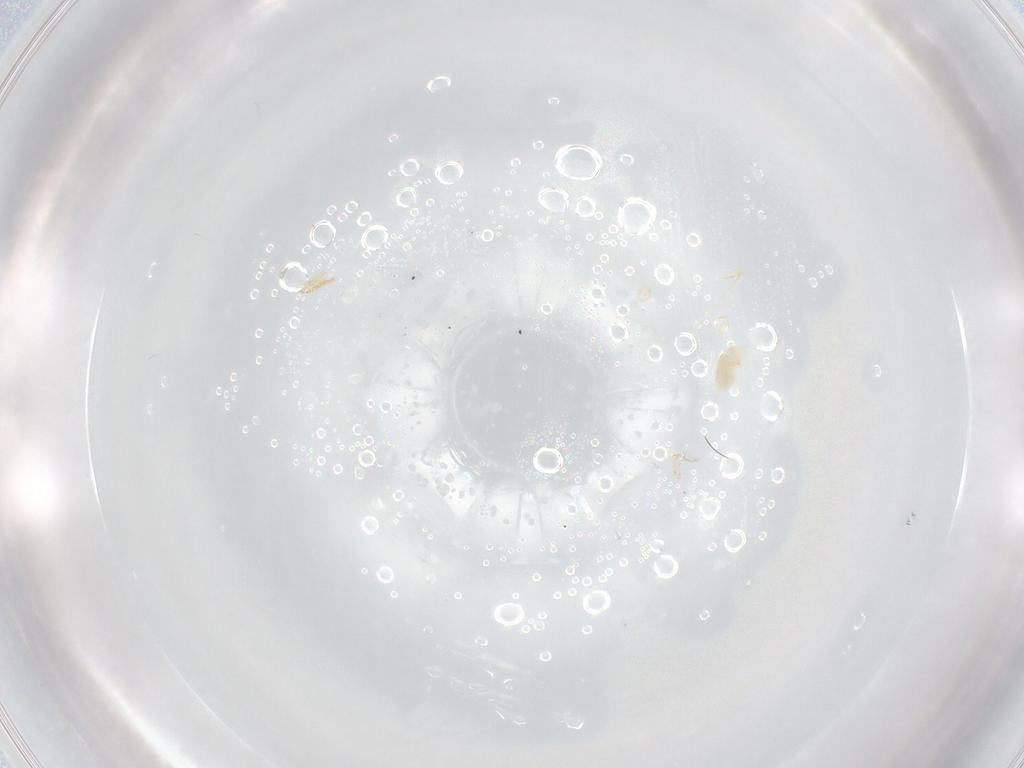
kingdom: Animalia
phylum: Arthropoda
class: Arachnida
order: Trombidiformes
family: Eupodidae
